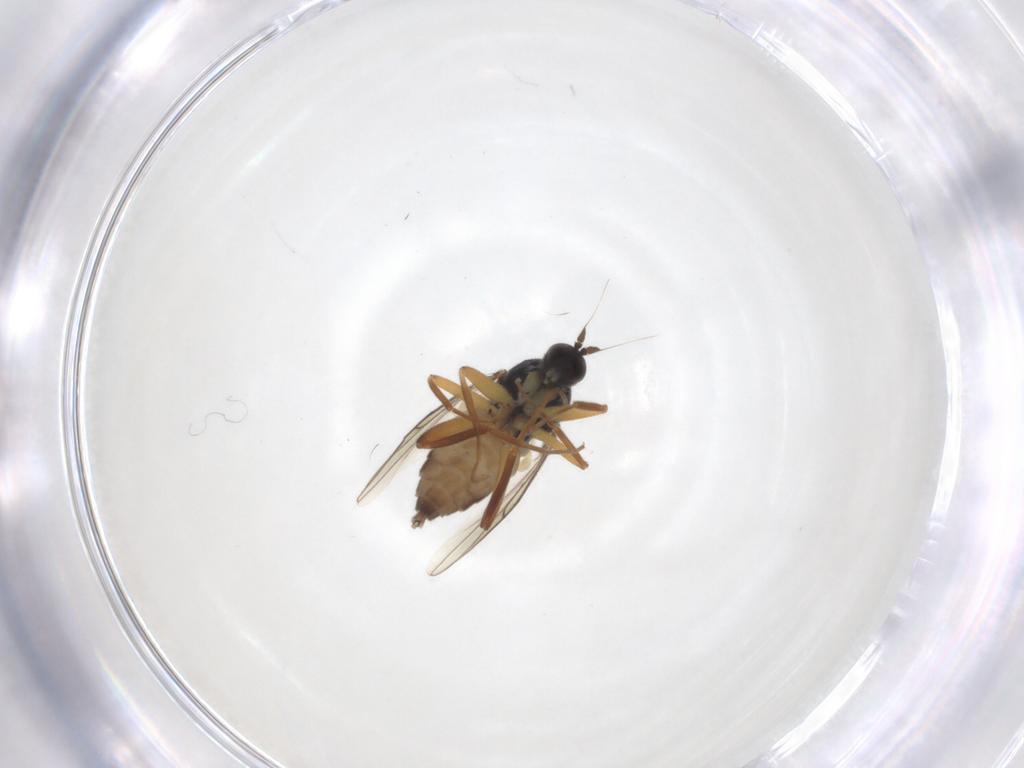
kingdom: Animalia
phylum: Arthropoda
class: Insecta
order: Diptera
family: Hybotidae
